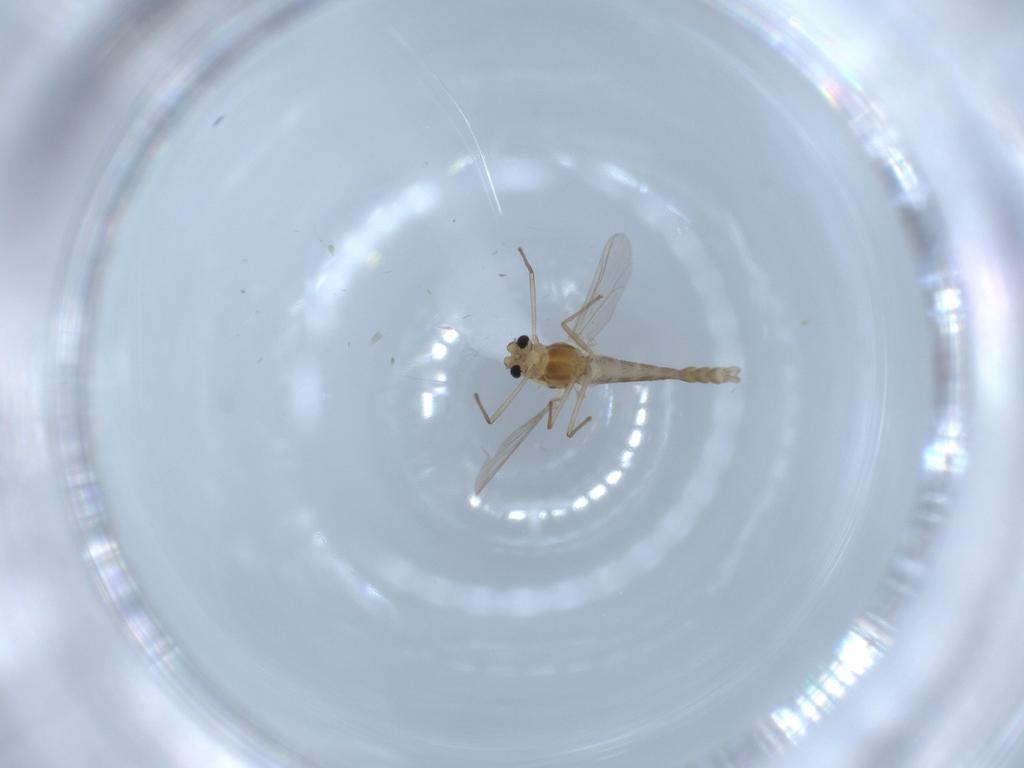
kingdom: Animalia
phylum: Arthropoda
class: Insecta
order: Diptera
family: Chironomidae
